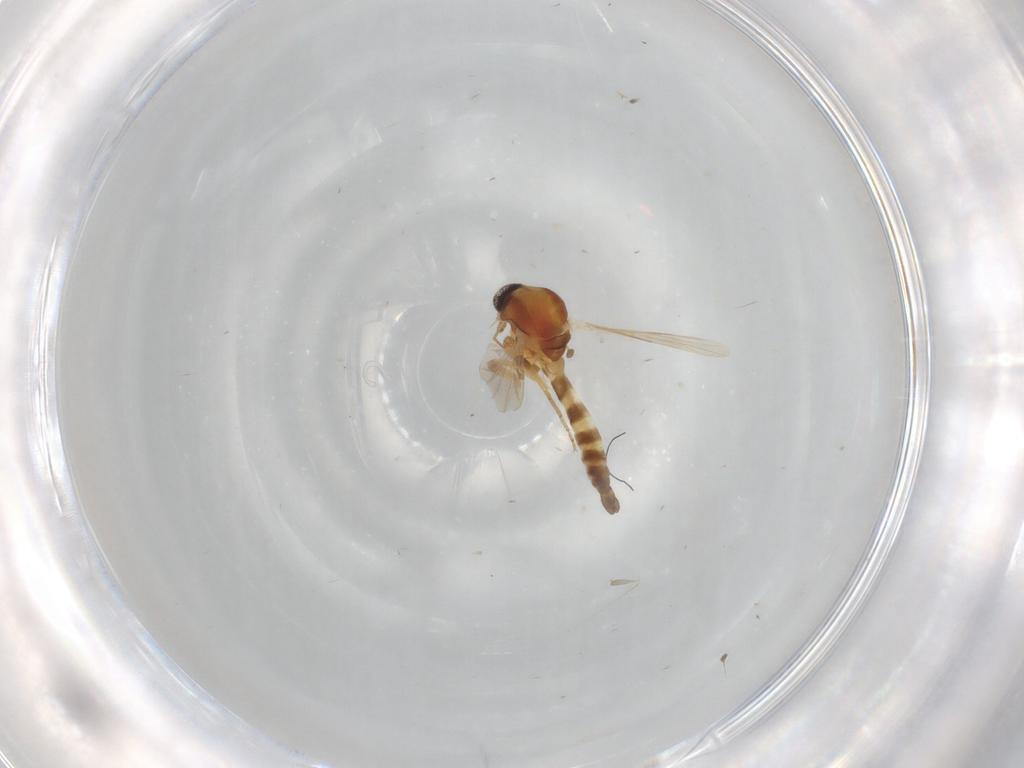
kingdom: Animalia
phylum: Arthropoda
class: Insecta
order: Diptera
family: Ceratopogonidae
